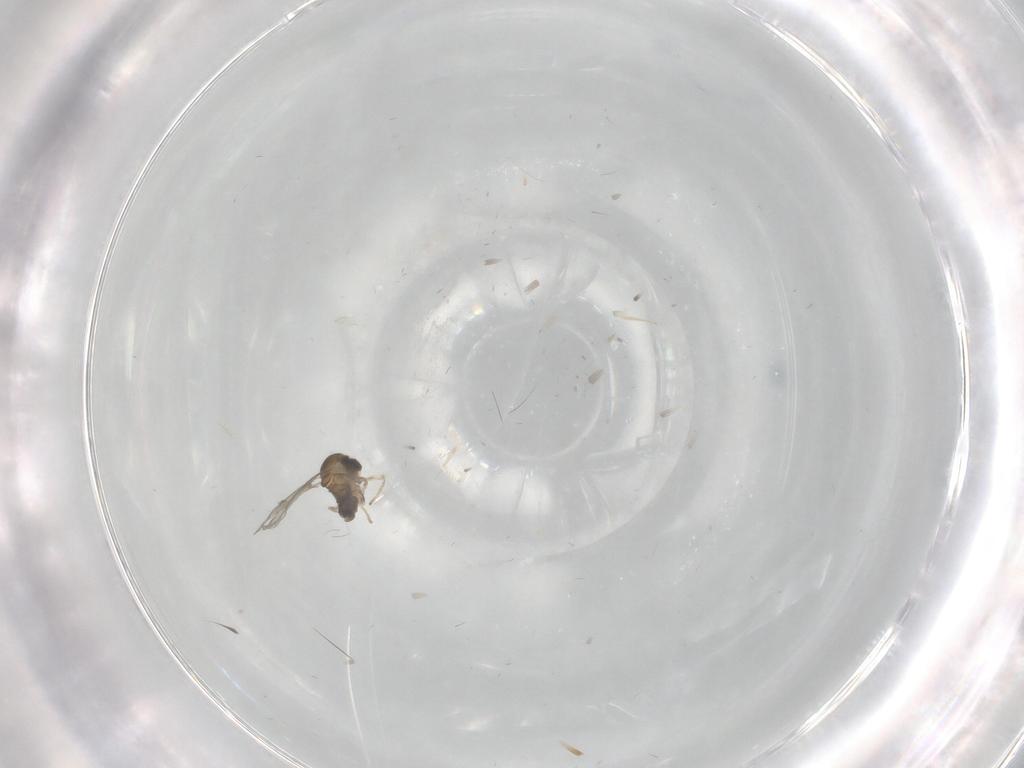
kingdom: Animalia
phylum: Arthropoda
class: Insecta
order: Diptera
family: Cecidomyiidae
